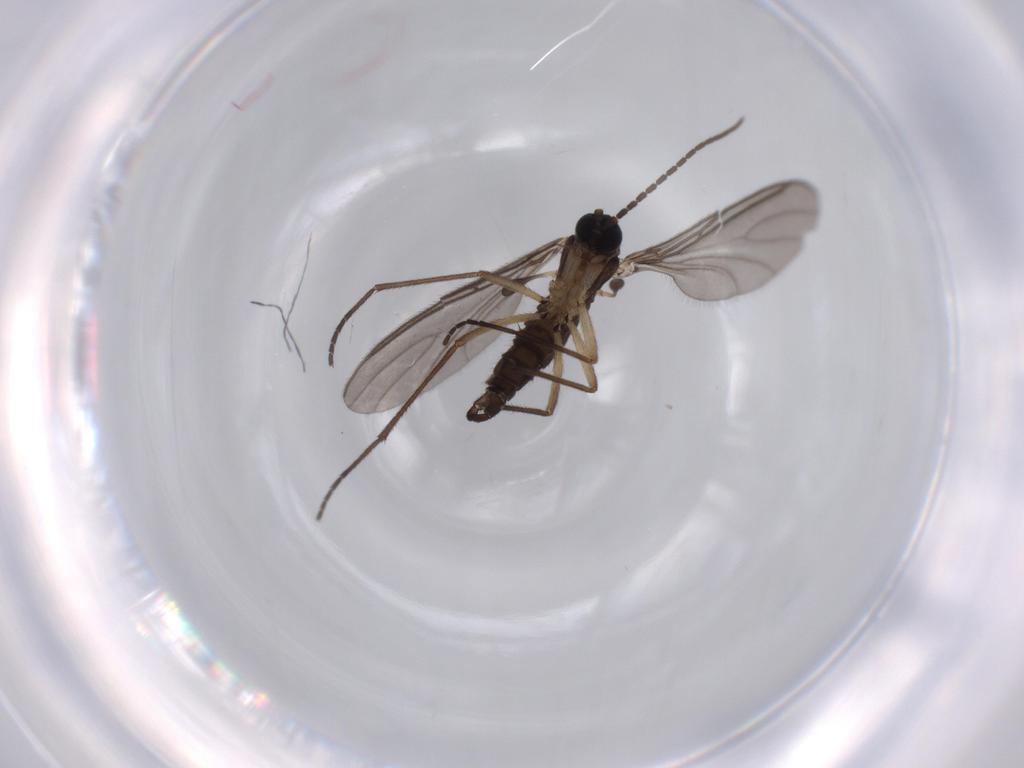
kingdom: Animalia
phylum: Arthropoda
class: Insecta
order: Diptera
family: Sciaridae
